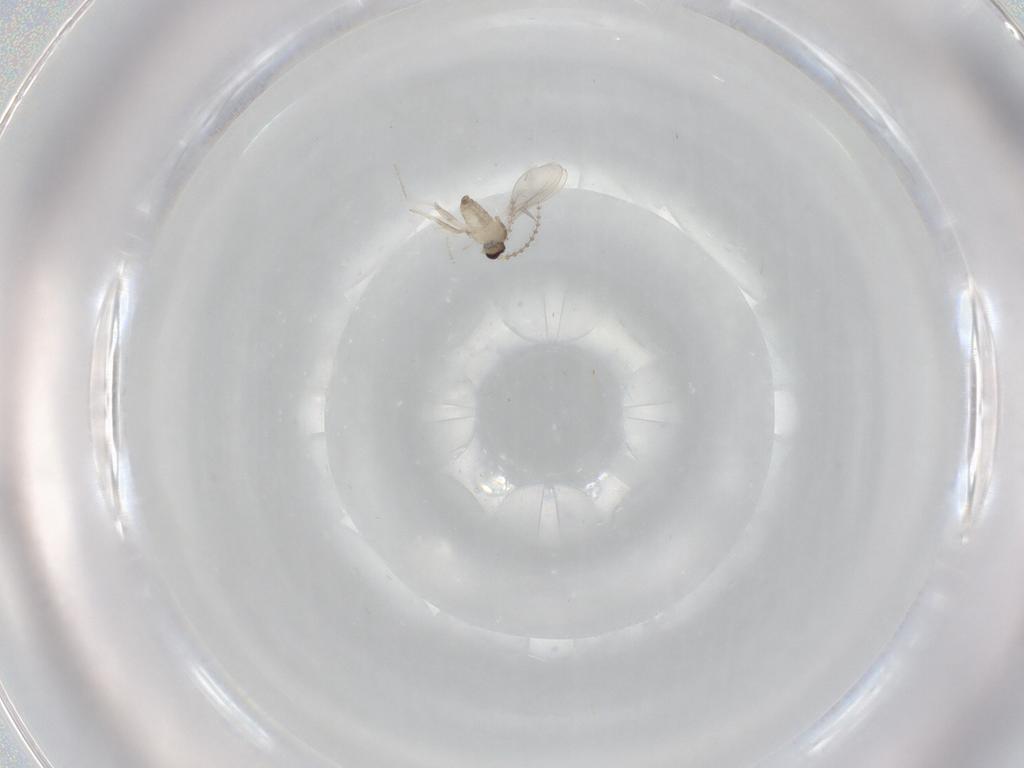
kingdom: Animalia
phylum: Arthropoda
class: Insecta
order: Diptera
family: Cecidomyiidae
